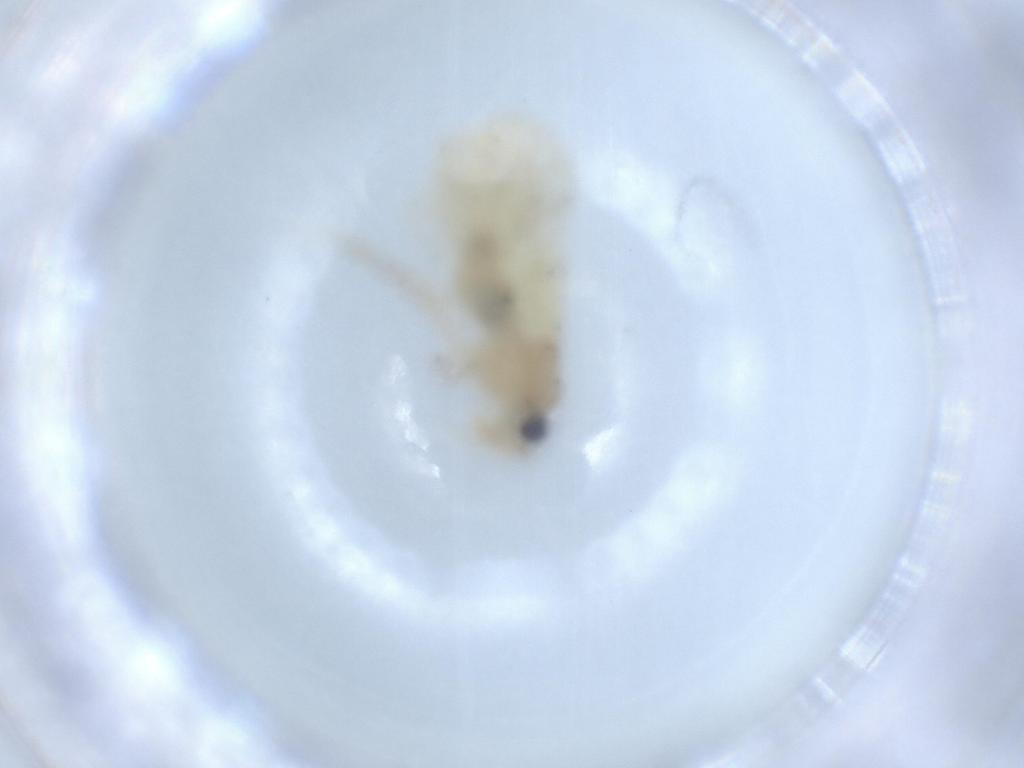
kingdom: Animalia
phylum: Arthropoda
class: Insecta
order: Psocodea
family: Caeciliusidae
